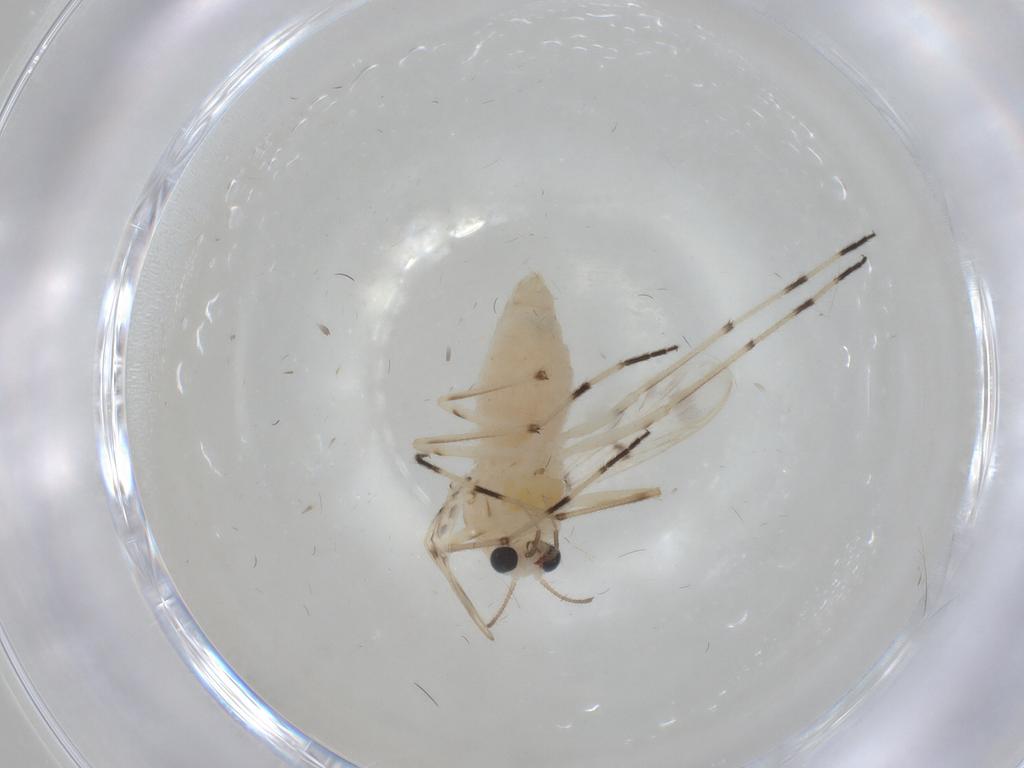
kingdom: Animalia
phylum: Arthropoda
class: Insecta
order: Diptera
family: Chironomidae
